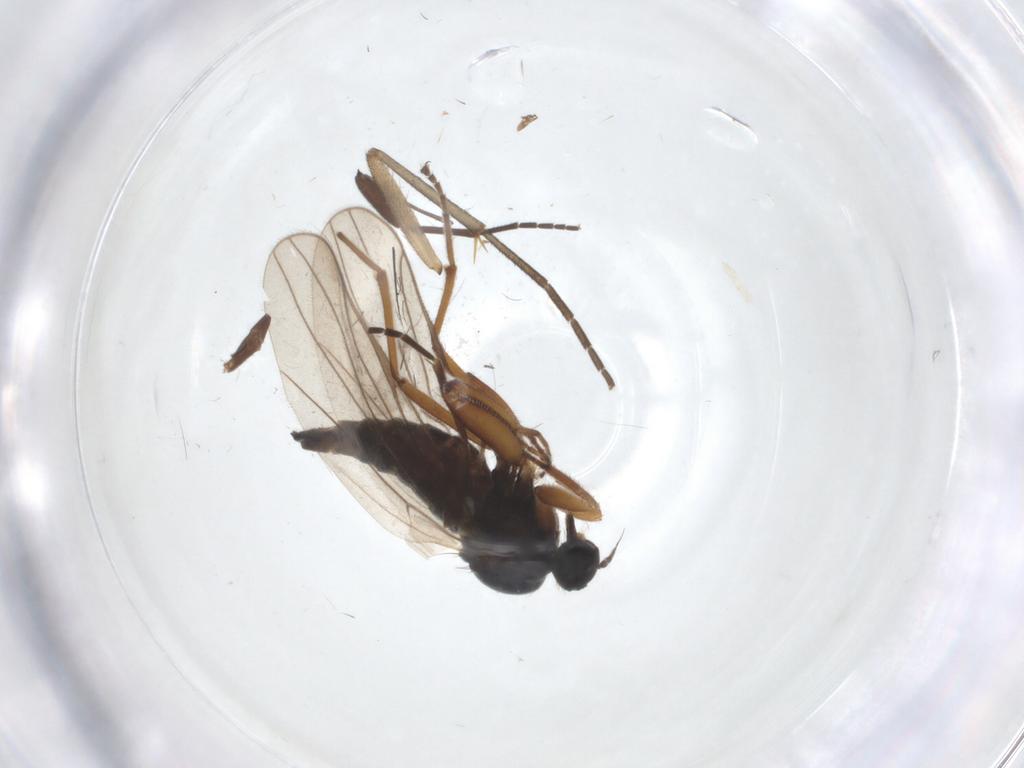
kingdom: Animalia
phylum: Arthropoda
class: Insecta
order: Diptera
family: Hybotidae
